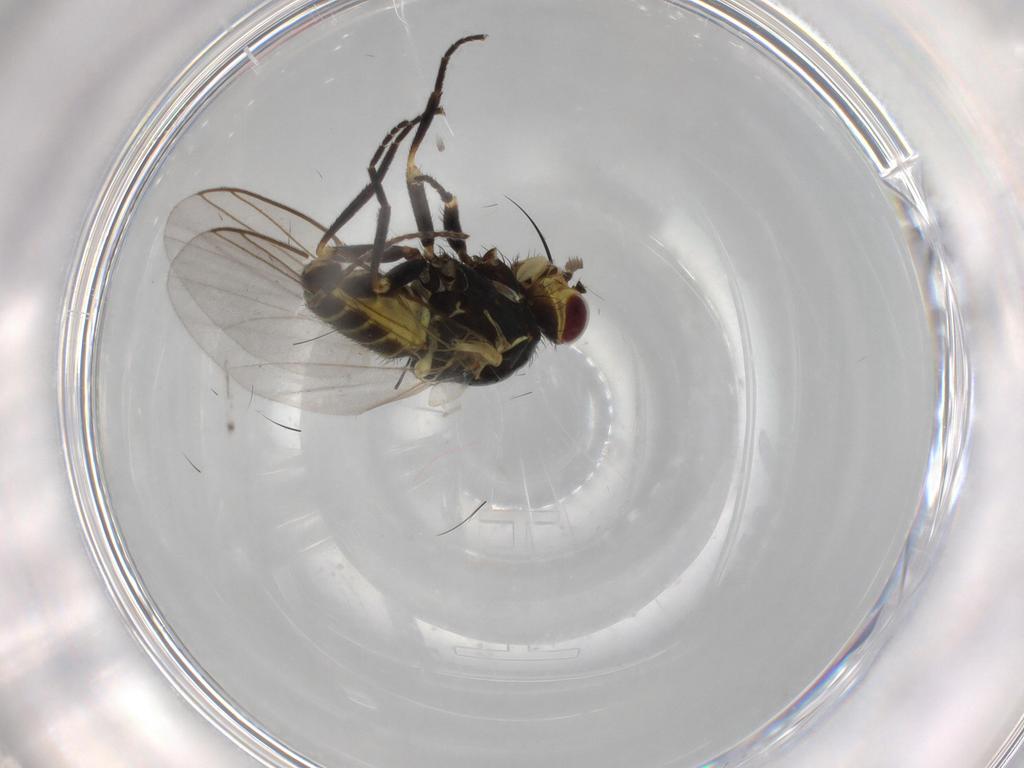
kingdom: Animalia
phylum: Arthropoda
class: Insecta
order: Diptera
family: Agromyzidae
